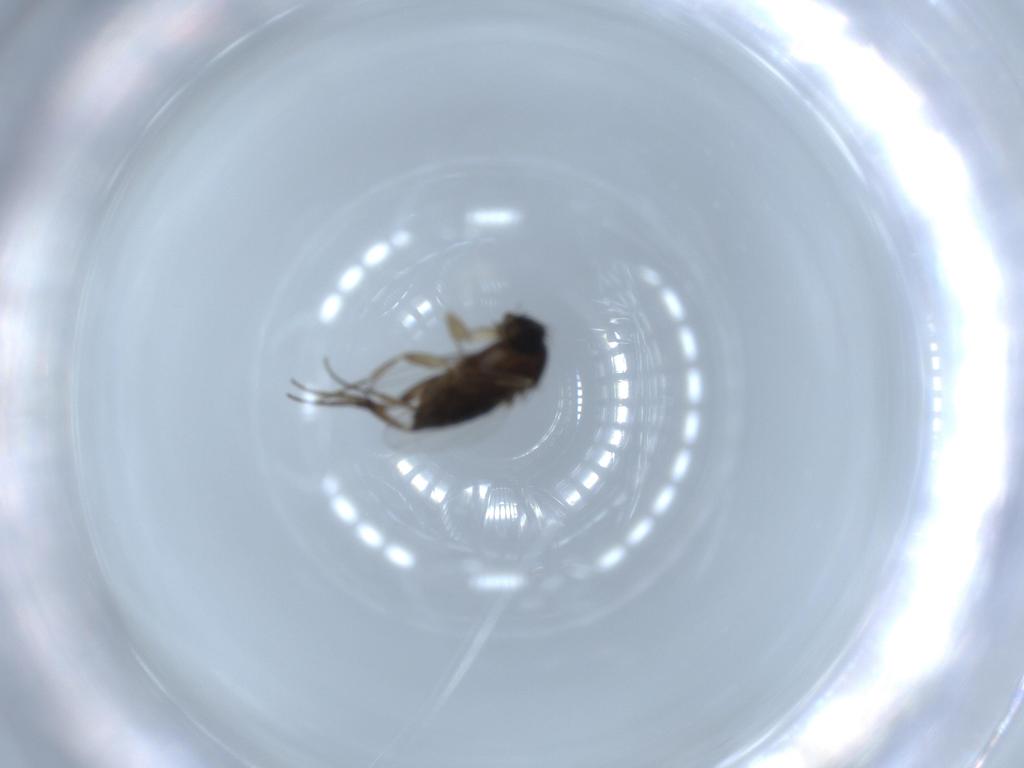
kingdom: Animalia
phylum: Arthropoda
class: Insecta
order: Diptera
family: Phoridae
